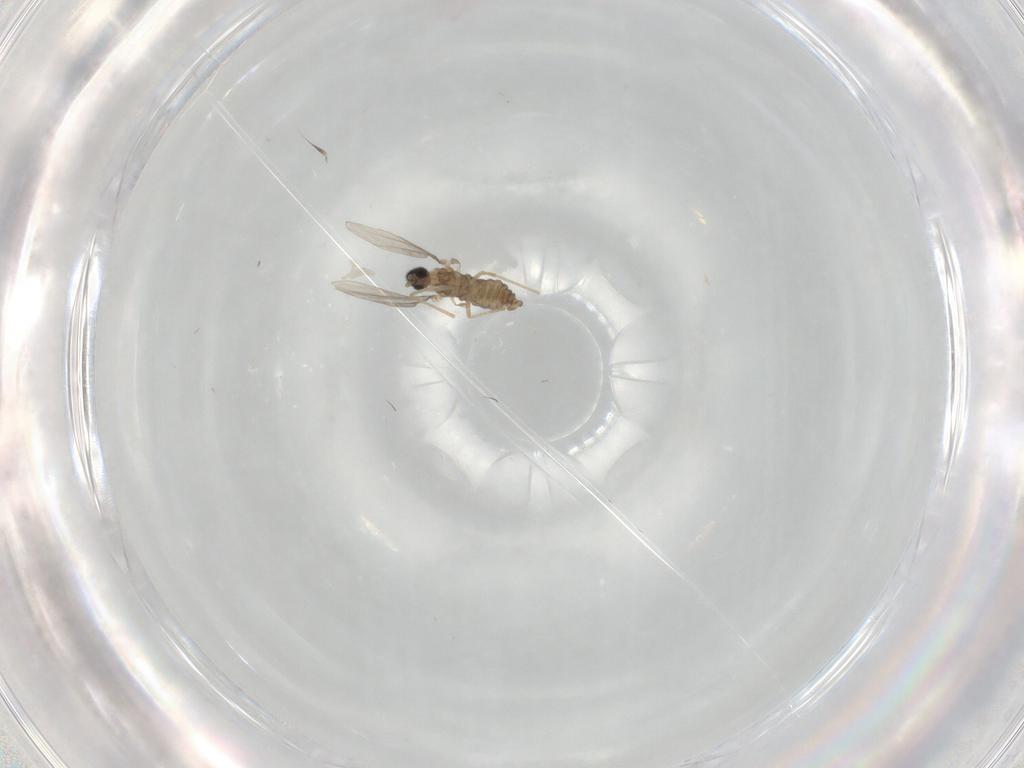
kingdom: Animalia
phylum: Arthropoda
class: Insecta
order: Diptera
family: Cecidomyiidae
